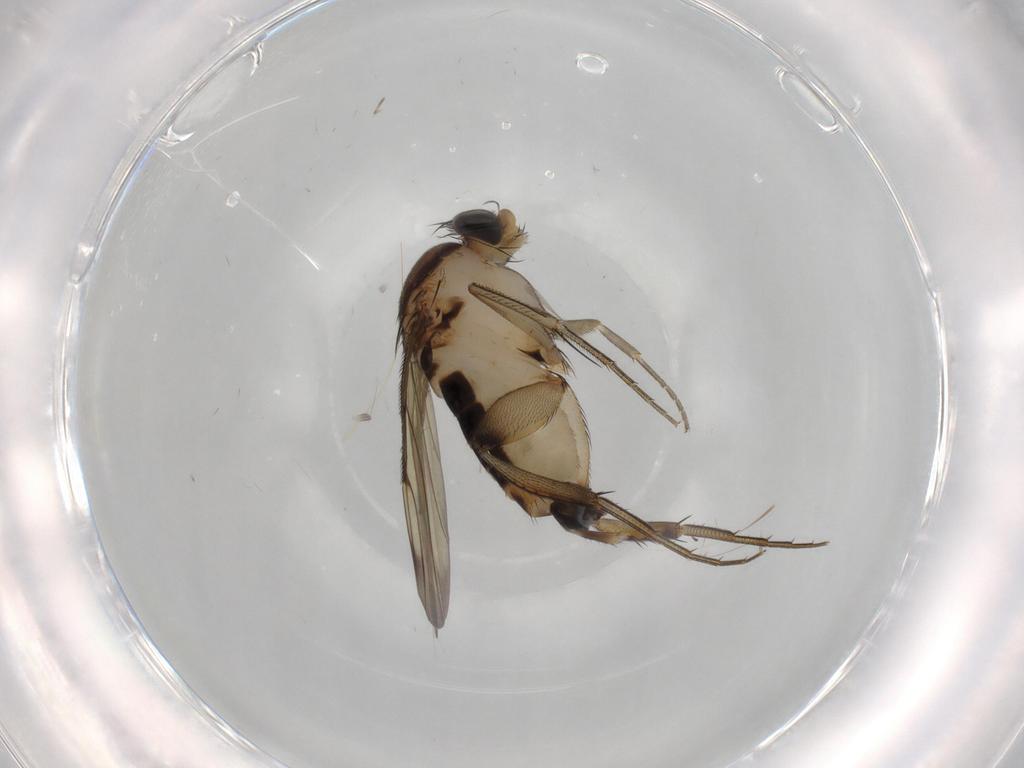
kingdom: Animalia
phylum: Arthropoda
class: Insecta
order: Diptera
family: Phoridae
